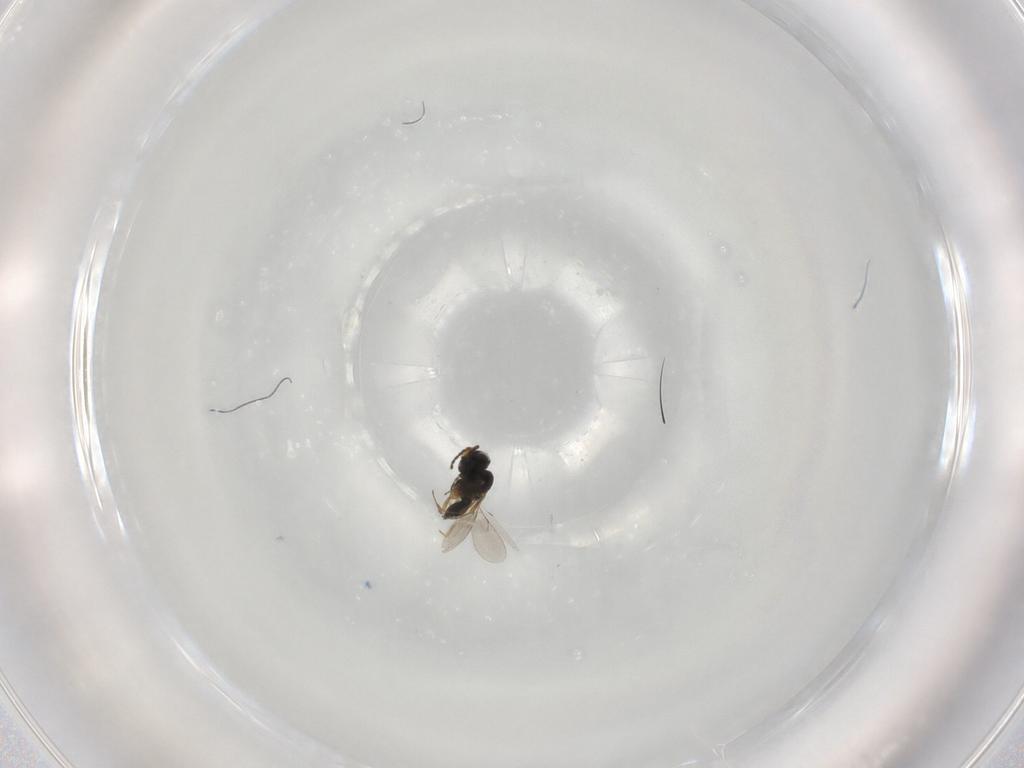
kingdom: Animalia
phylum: Arthropoda
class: Insecta
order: Hymenoptera
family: Scelionidae
